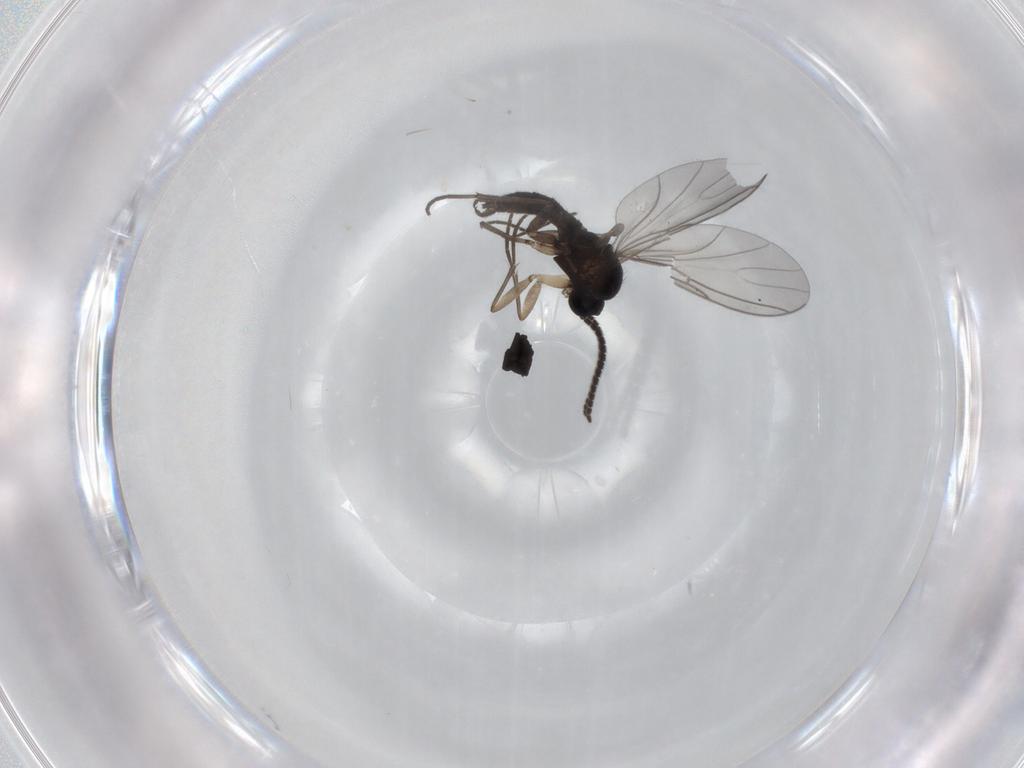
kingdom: Animalia
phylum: Arthropoda
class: Insecta
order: Diptera
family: Sciaridae
